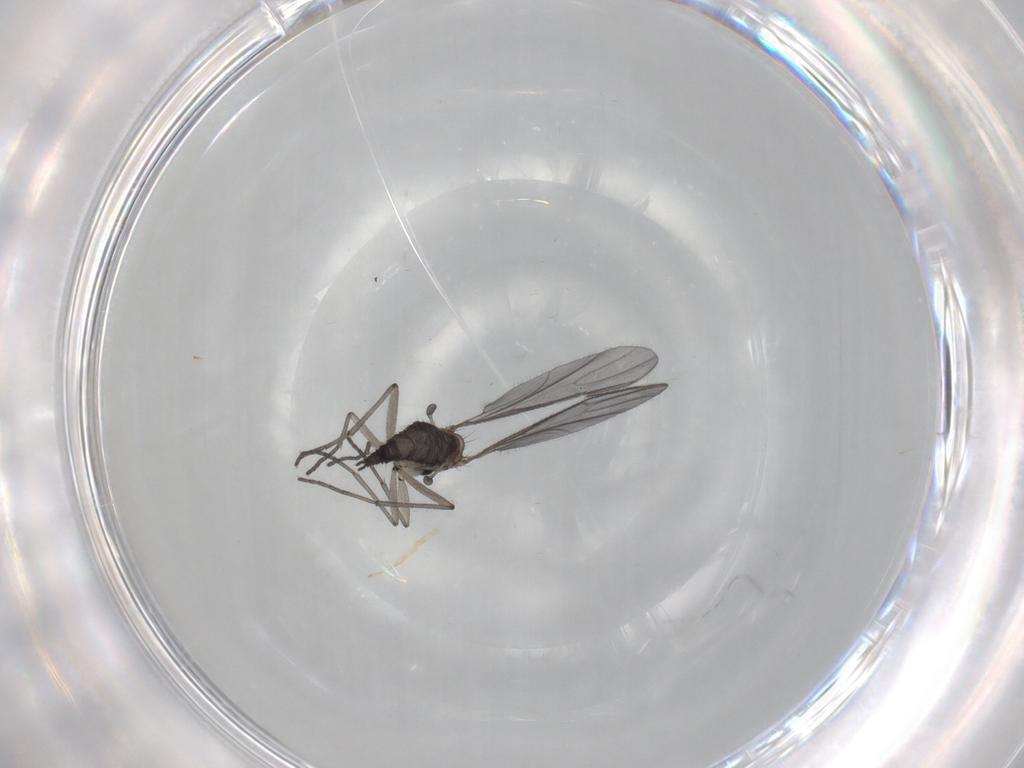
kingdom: Animalia
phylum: Arthropoda
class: Insecta
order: Diptera
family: Sciaridae
